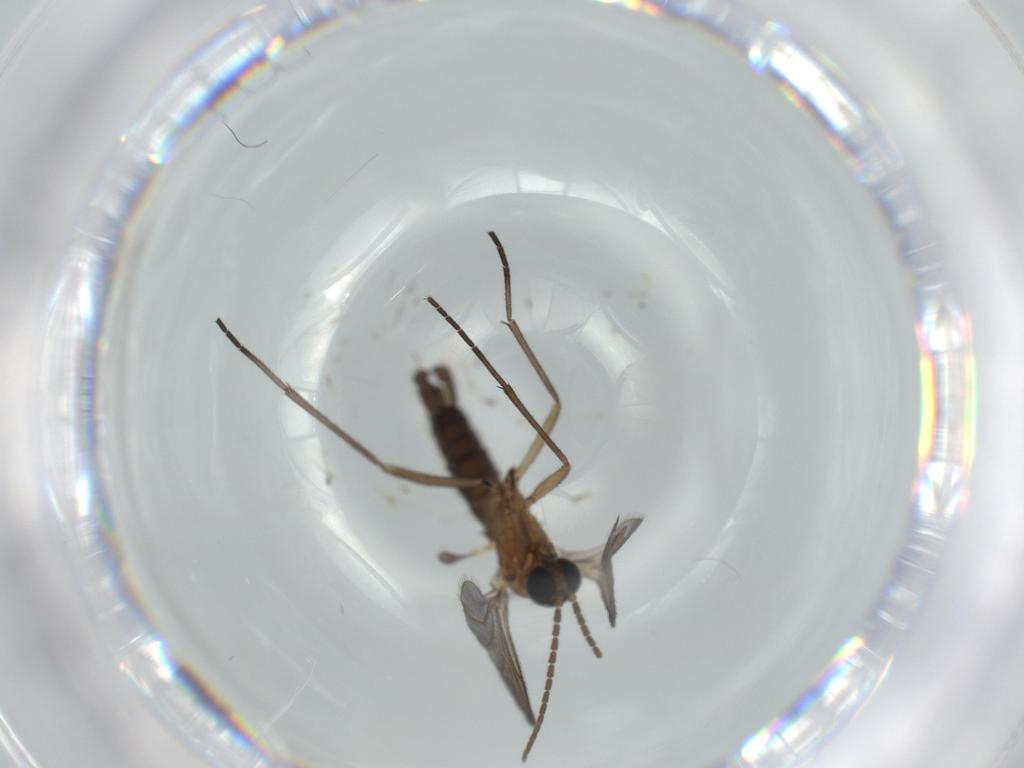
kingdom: Animalia
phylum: Arthropoda
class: Insecta
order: Diptera
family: Sciaridae
